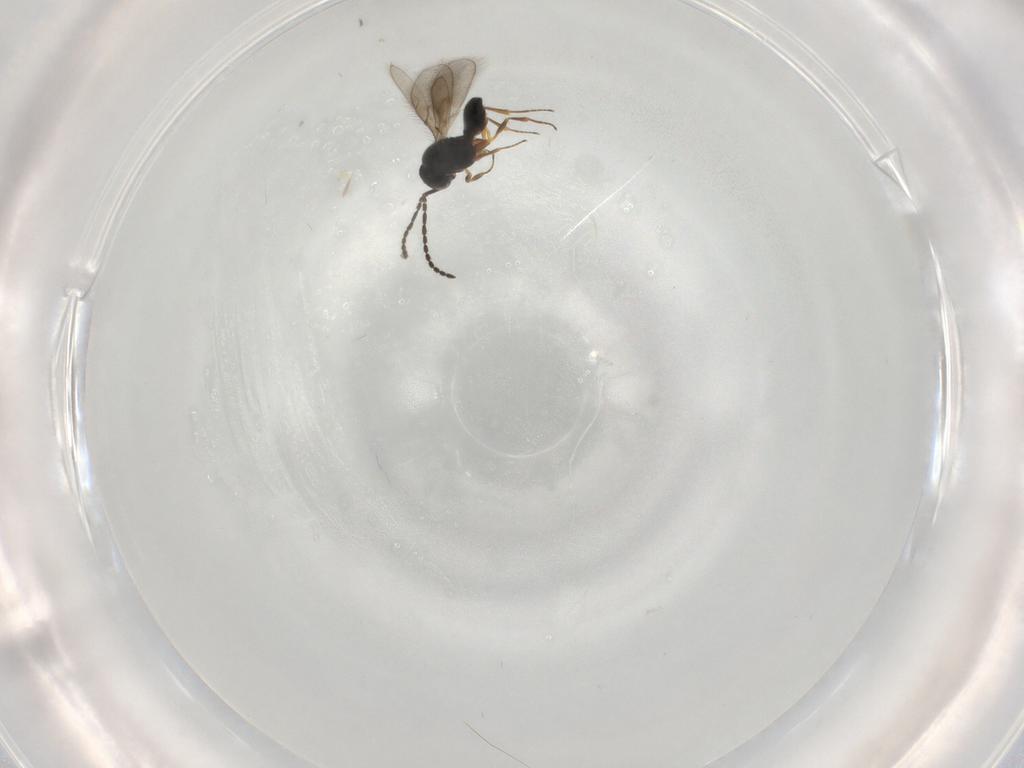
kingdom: Animalia
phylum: Arthropoda
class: Insecta
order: Hymenoptera
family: Scelionidae
